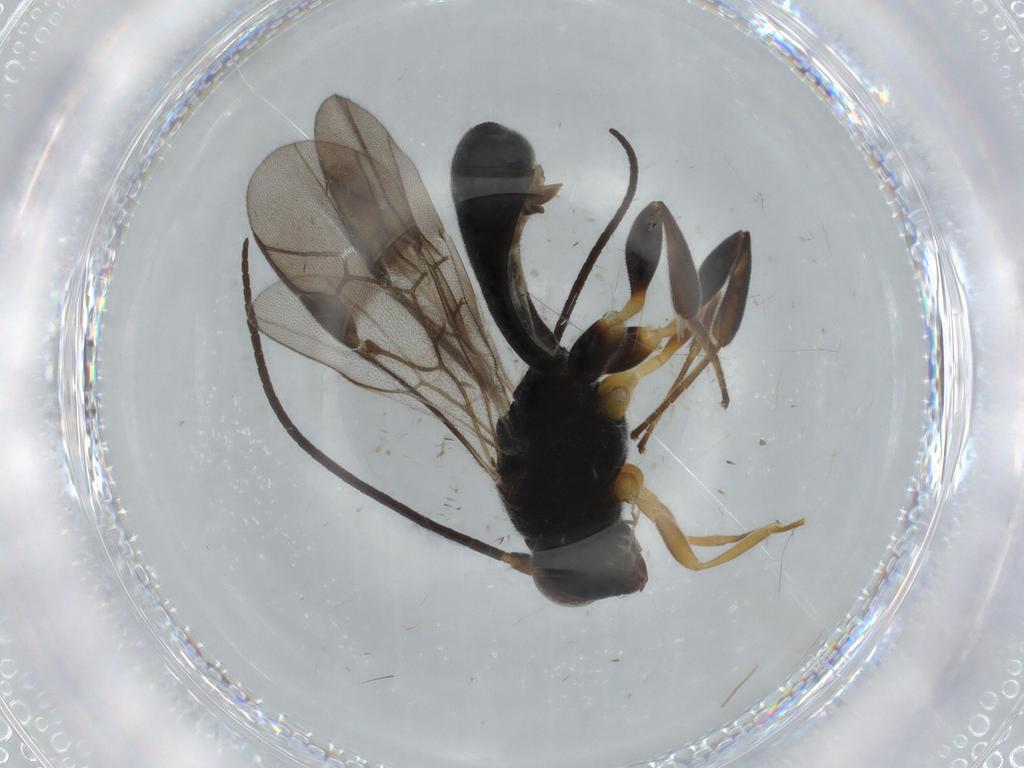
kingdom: Animalia
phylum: Arthropoda
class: Insecta
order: Hymenoptera
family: Braconidae
